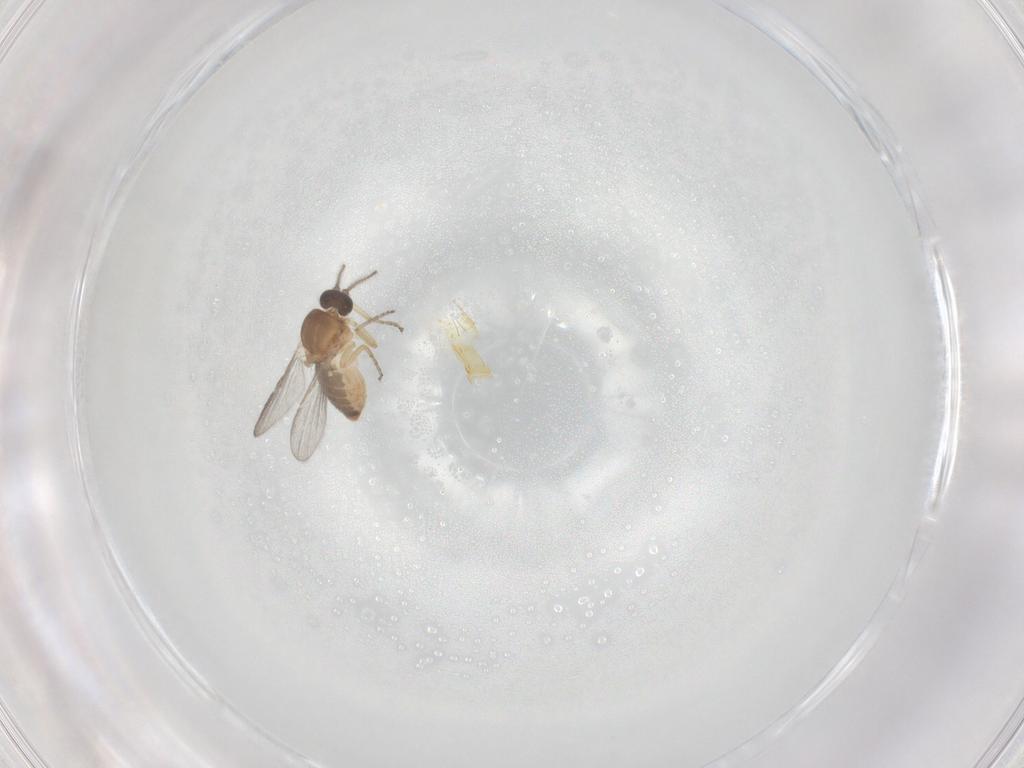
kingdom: Animalia
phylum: Arthropoda
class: Insecta
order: Diptera
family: Ceratopogonidae
